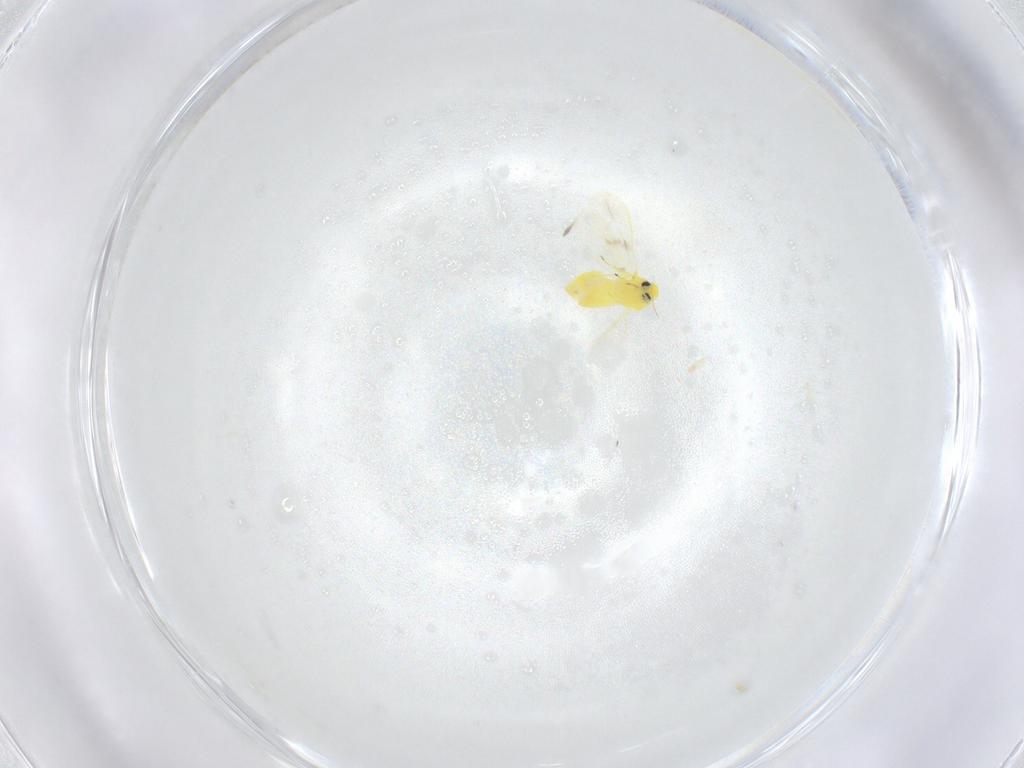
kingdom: Animalia
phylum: Arthropoda
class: Insecta
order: Hemiptera
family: Aleyrodidae
